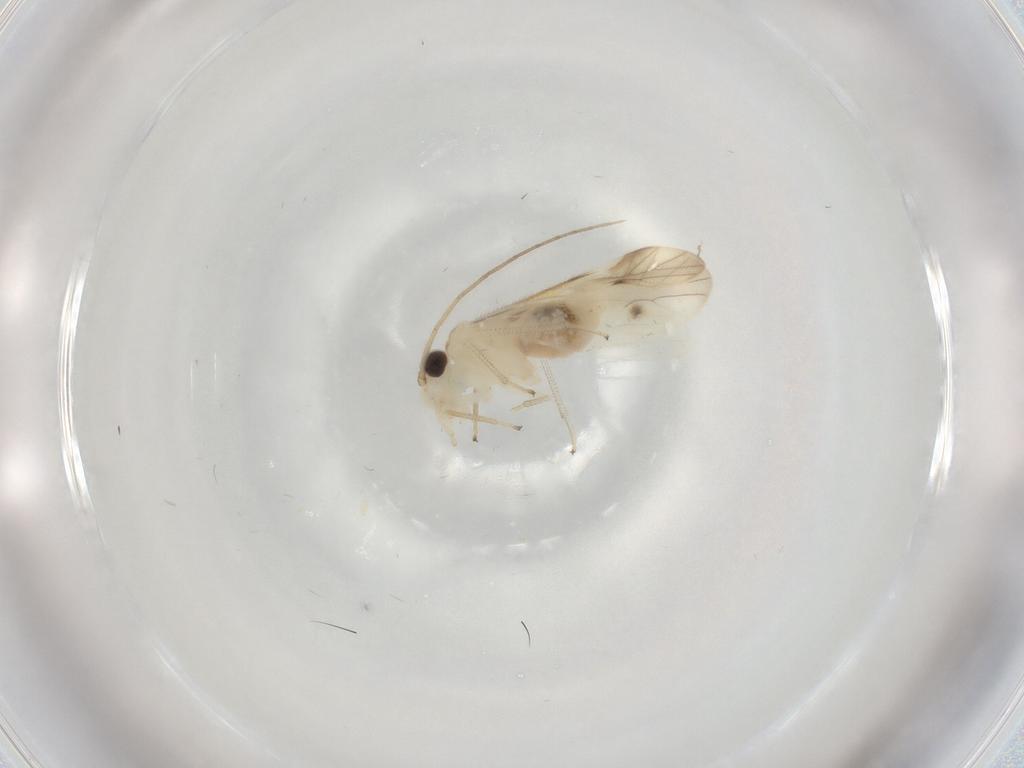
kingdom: Animalia
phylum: Arthropoda
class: Insecta
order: Psocodea
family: Caeciliusidae
